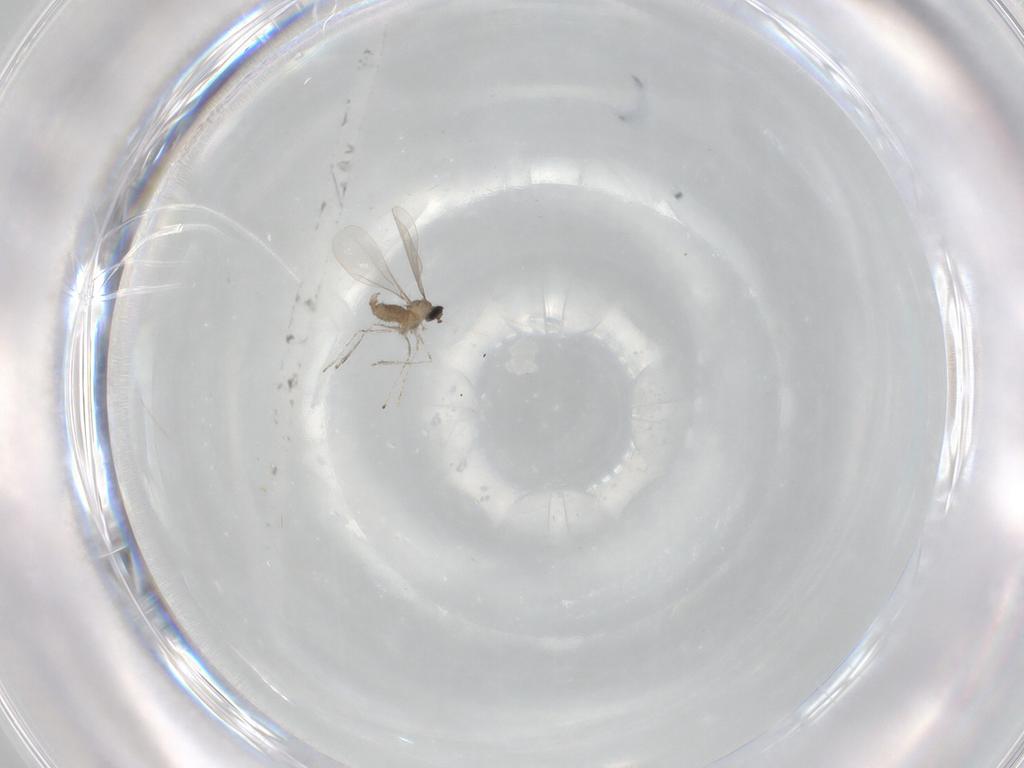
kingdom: Animalia
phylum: Arthropoda
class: Insecta
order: Diptera
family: Cecidomyiidae
